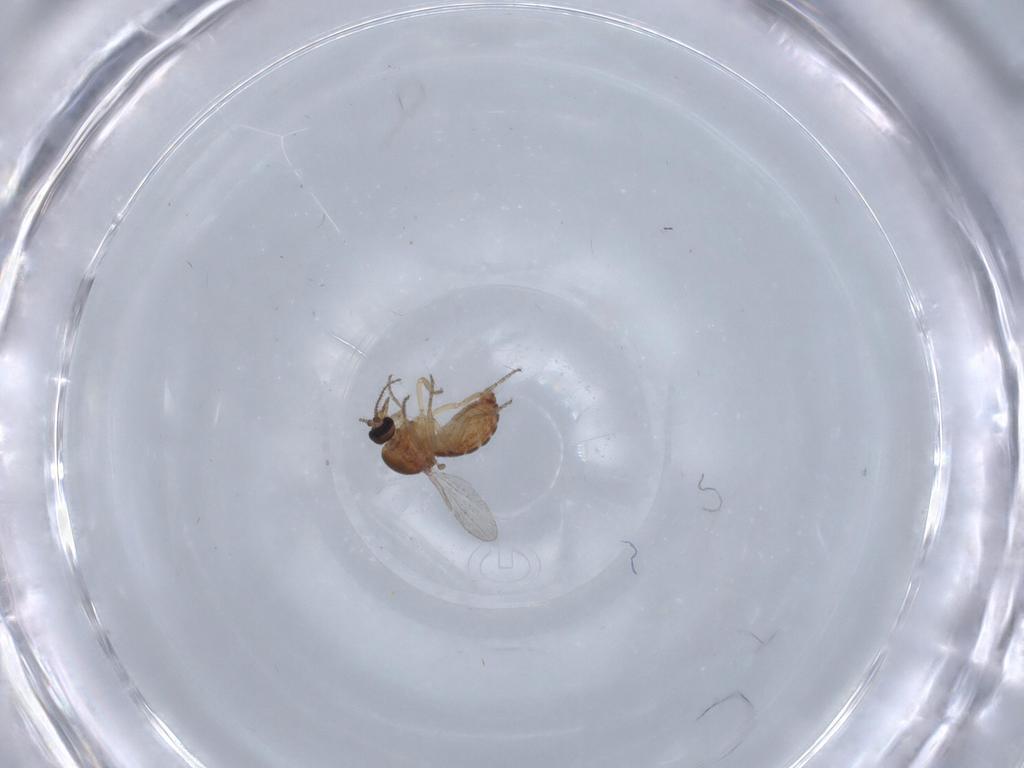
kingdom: Animalia
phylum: Arthropoda
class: Insecta
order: Diptera
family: Ceratopogonidae
